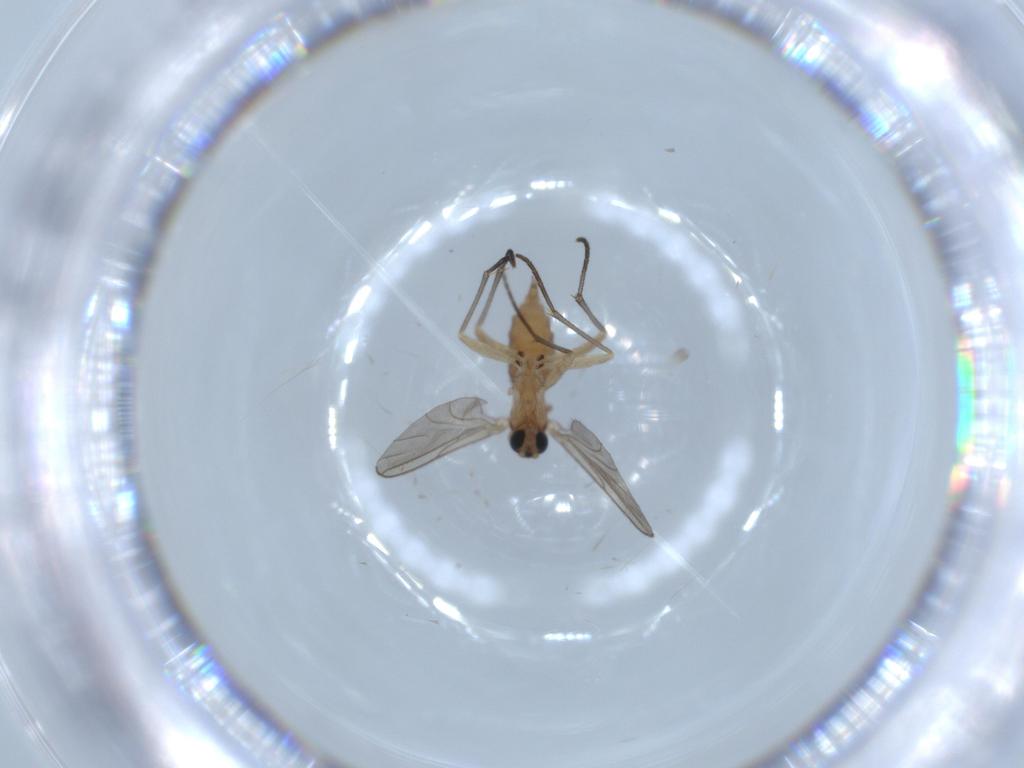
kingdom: Animalia
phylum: Arthropoda
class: Insecta
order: Diptera
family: Sciaridae
